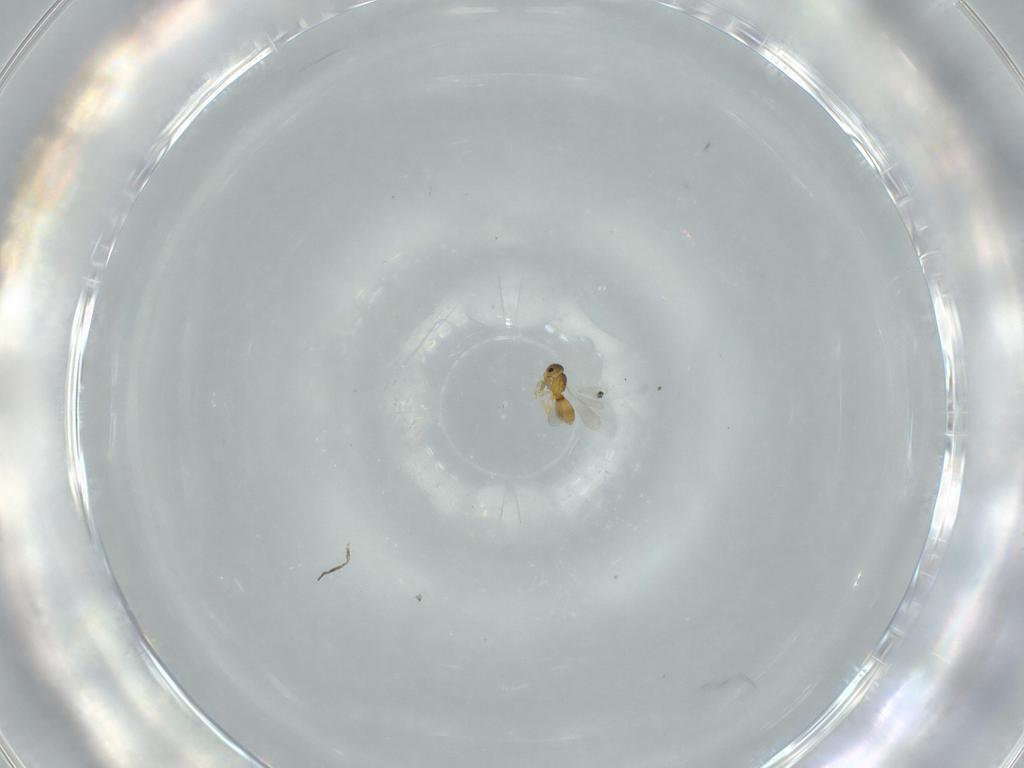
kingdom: Animalia
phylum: Arthropoda
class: Insecta
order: Hymenoptera
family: Platygastridae
